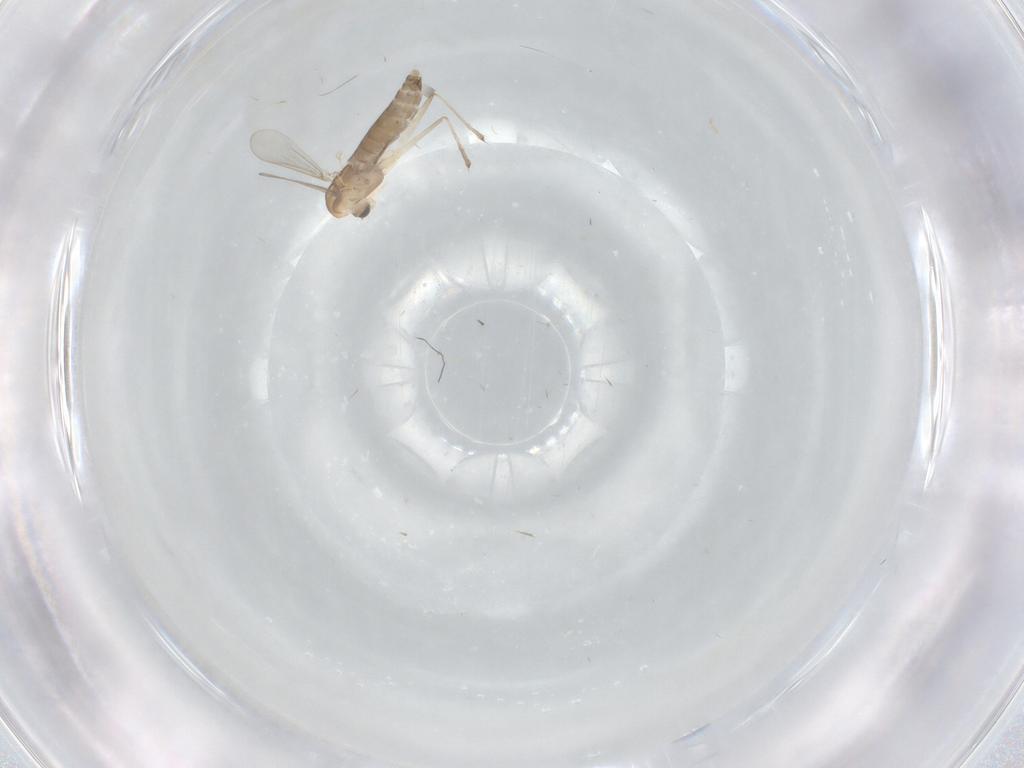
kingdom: Animalia
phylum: Arthropoda
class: Insecta
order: Diptera
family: Chironomidae
